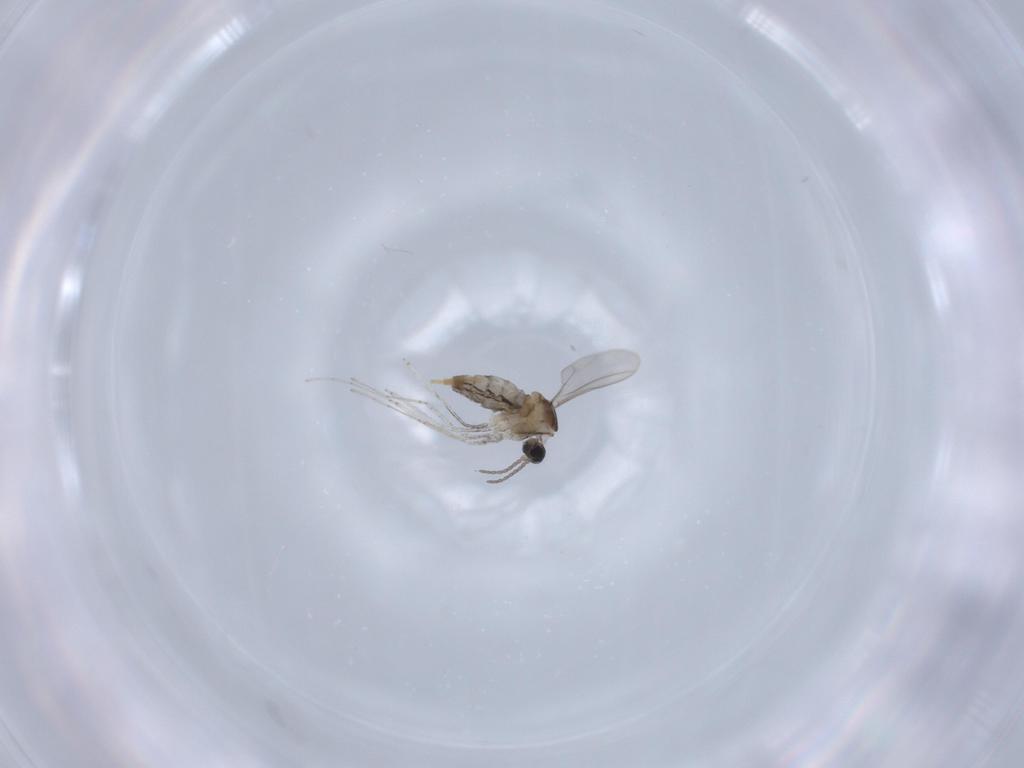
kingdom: Animalia
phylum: Arthropoda
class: Insecta
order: Diptera
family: Cecidomyiidae
